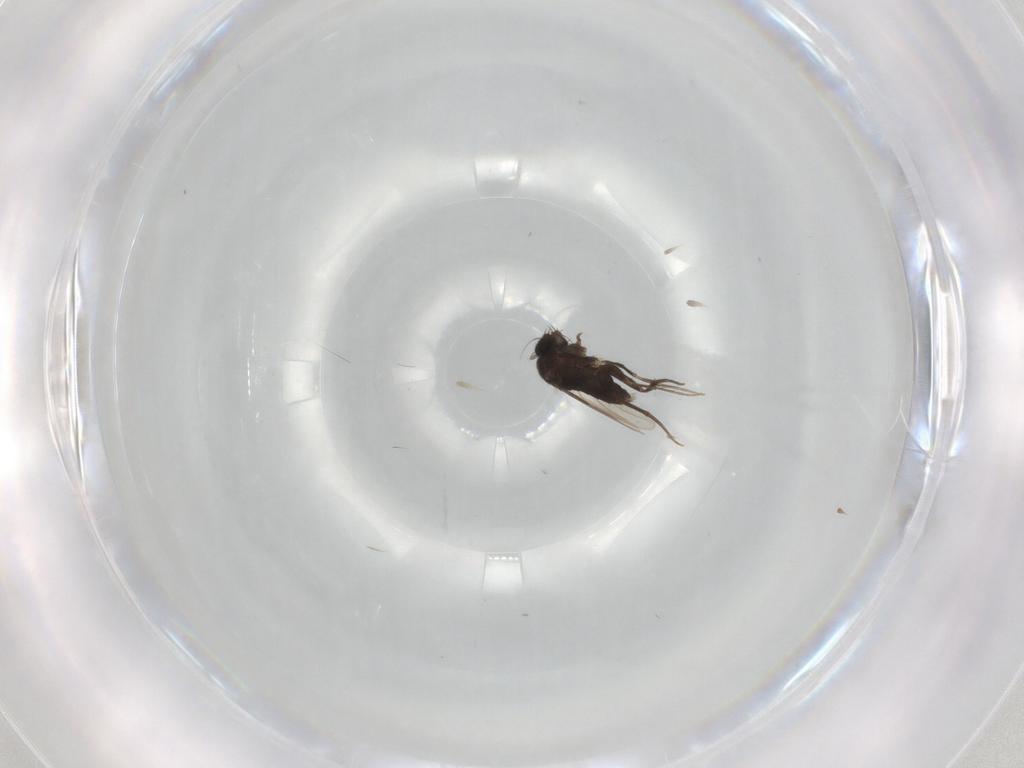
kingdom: Animalia
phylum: Arthropoda
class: Insecta
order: Diptera
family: Phoridae
